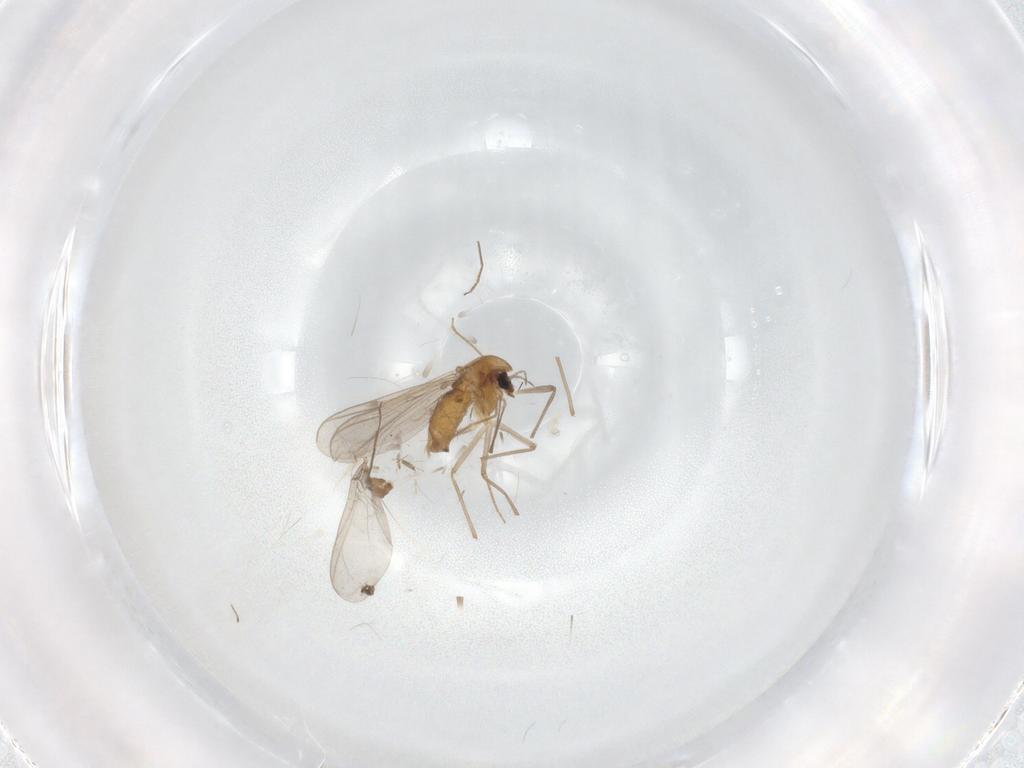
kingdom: Animalia
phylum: Arthropoda
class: Insecta
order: Diptera
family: Chironomidae
